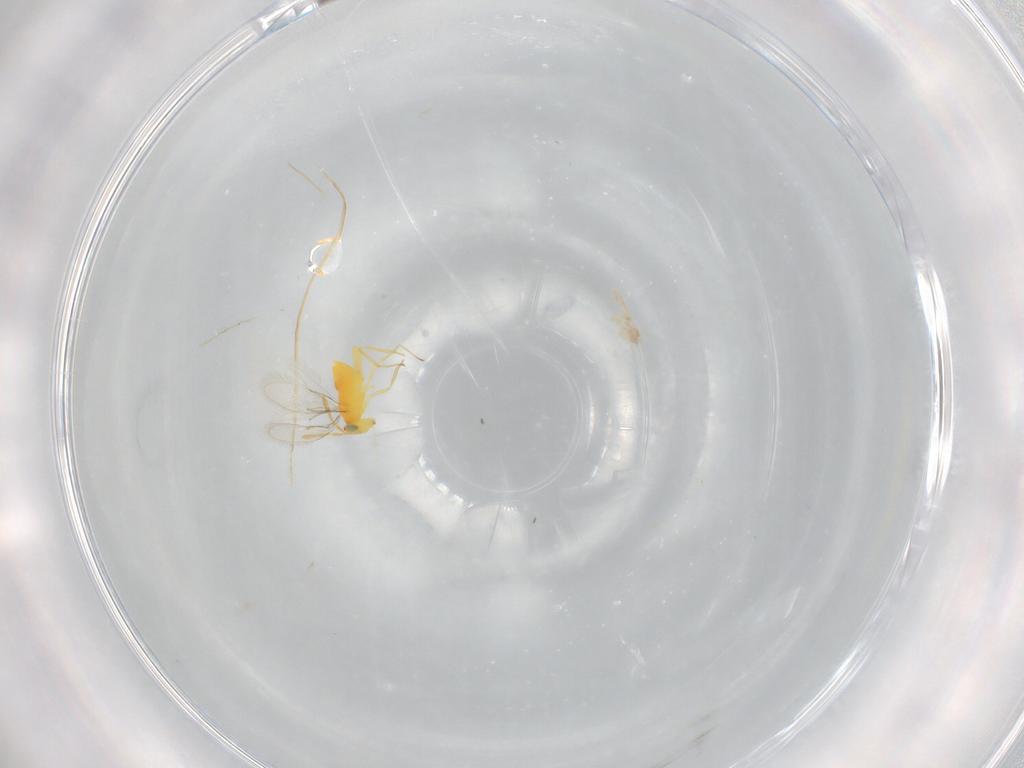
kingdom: Animalia
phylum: Arthropoda
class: Insecta
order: Hymenoptera
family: Aphelinidae
